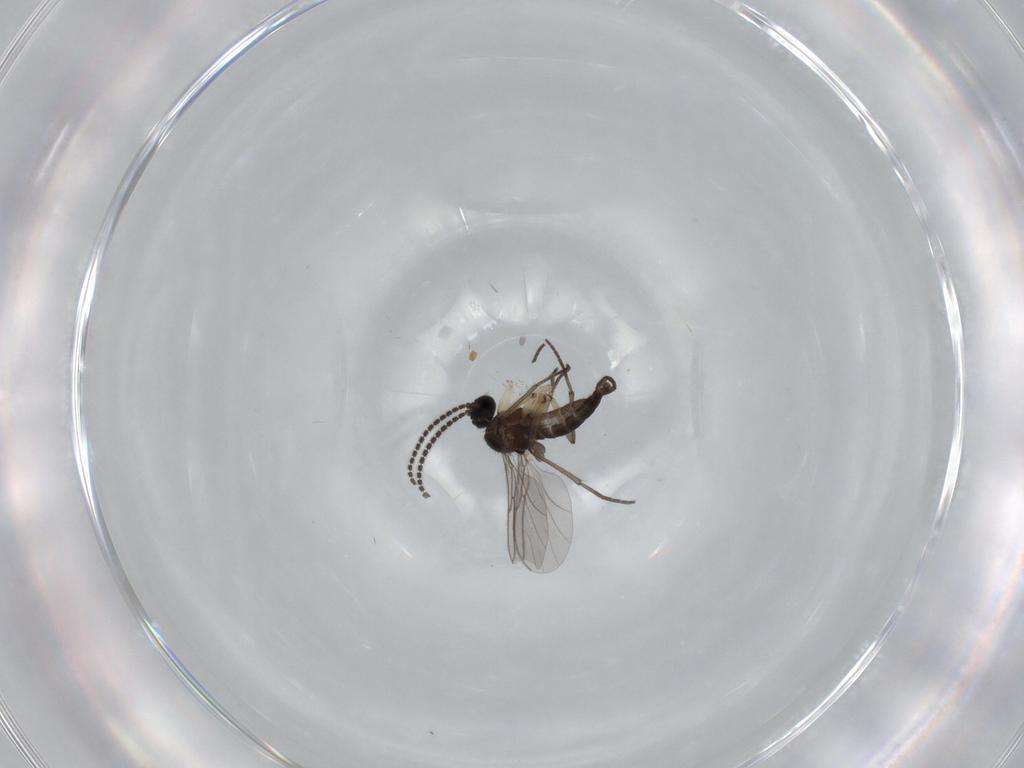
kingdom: Animalia
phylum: Arthropoda
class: Insecta
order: Diptera
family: Sciaridae
